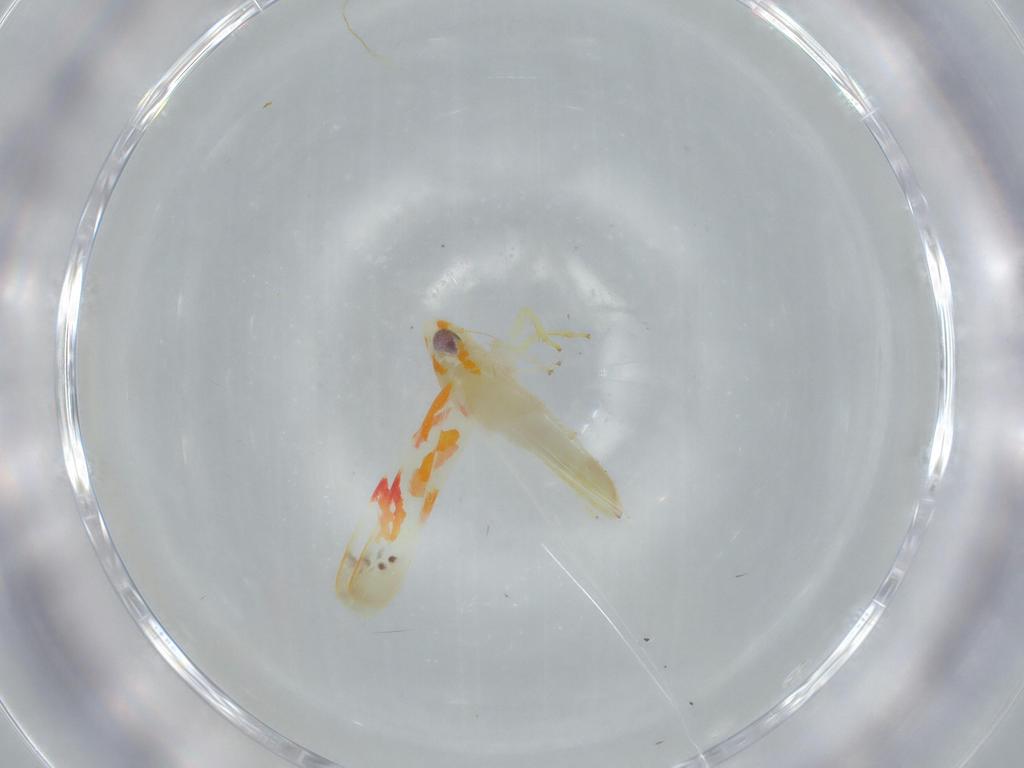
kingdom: Animalia
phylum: Arthropoda
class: Insecta
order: Hemiptera
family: Cicadellidae
